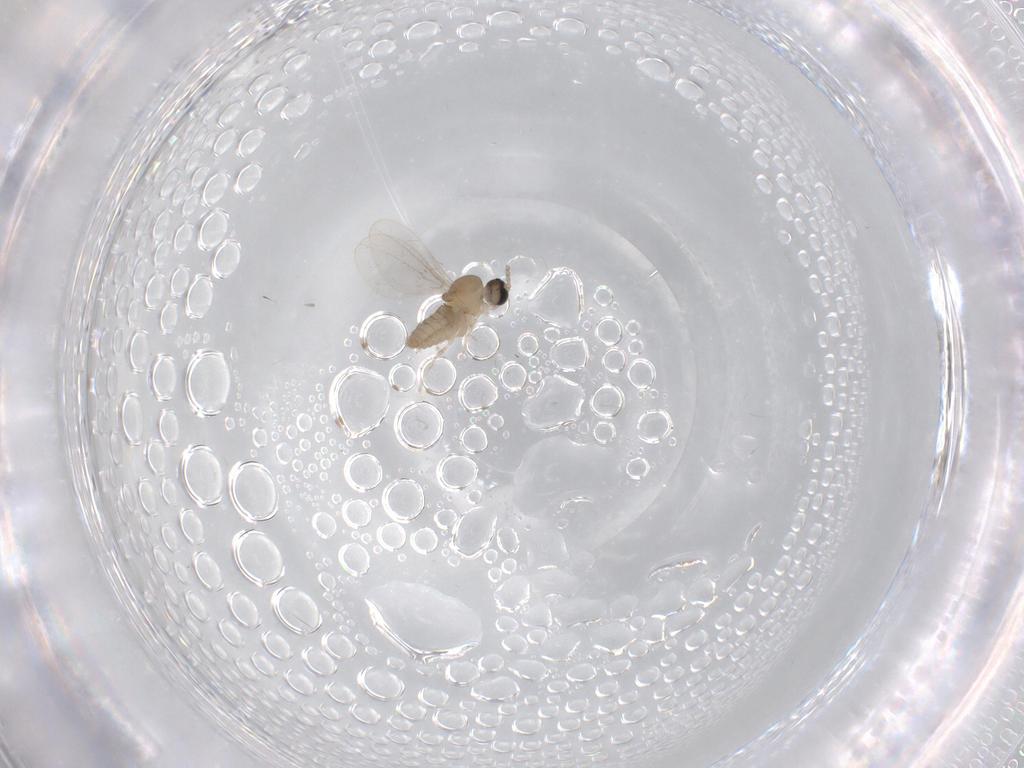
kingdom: Animalia
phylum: Arthropoda
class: Insecta
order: Diptera
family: Cecidomyiidae
